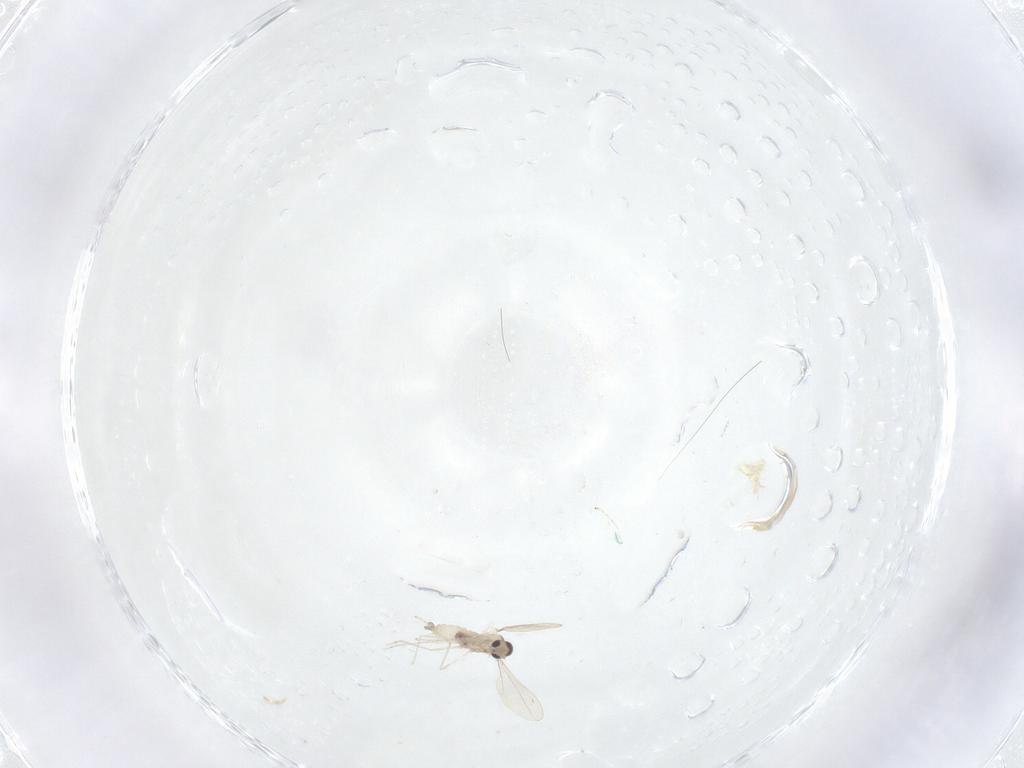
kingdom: Animalia
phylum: Arthropoda
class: Insecta
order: Diptera
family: Cecidomyiidae
